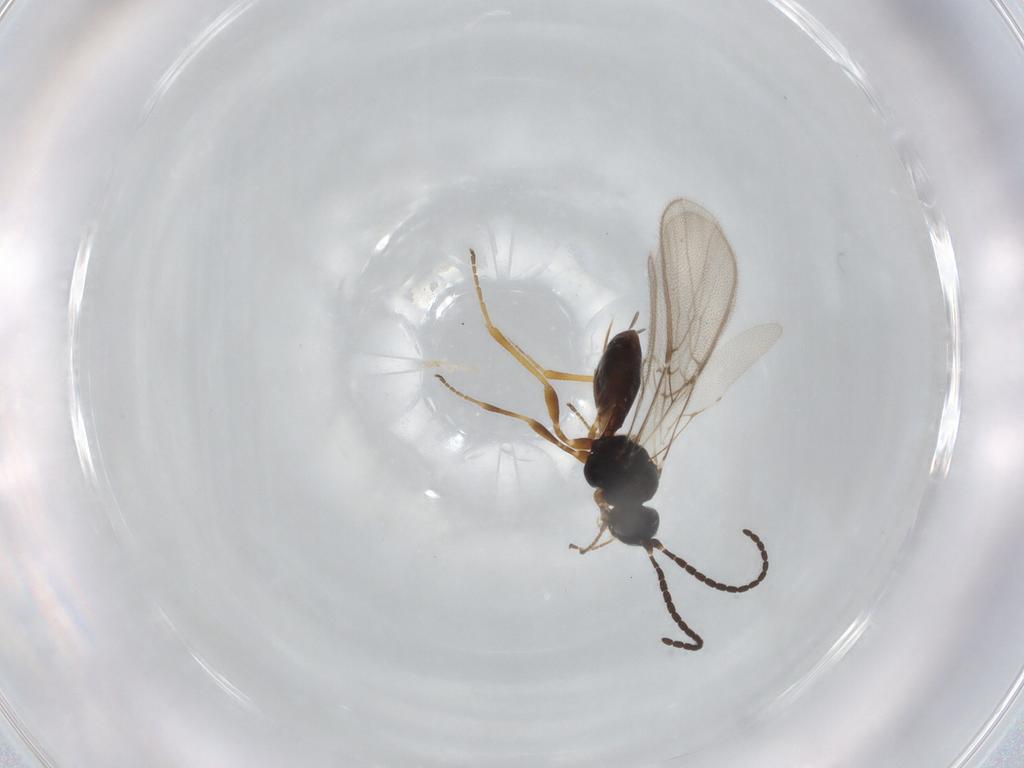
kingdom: Animalia
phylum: Arthropoda
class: Insecta
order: Hymenoptera
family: Braconidae
